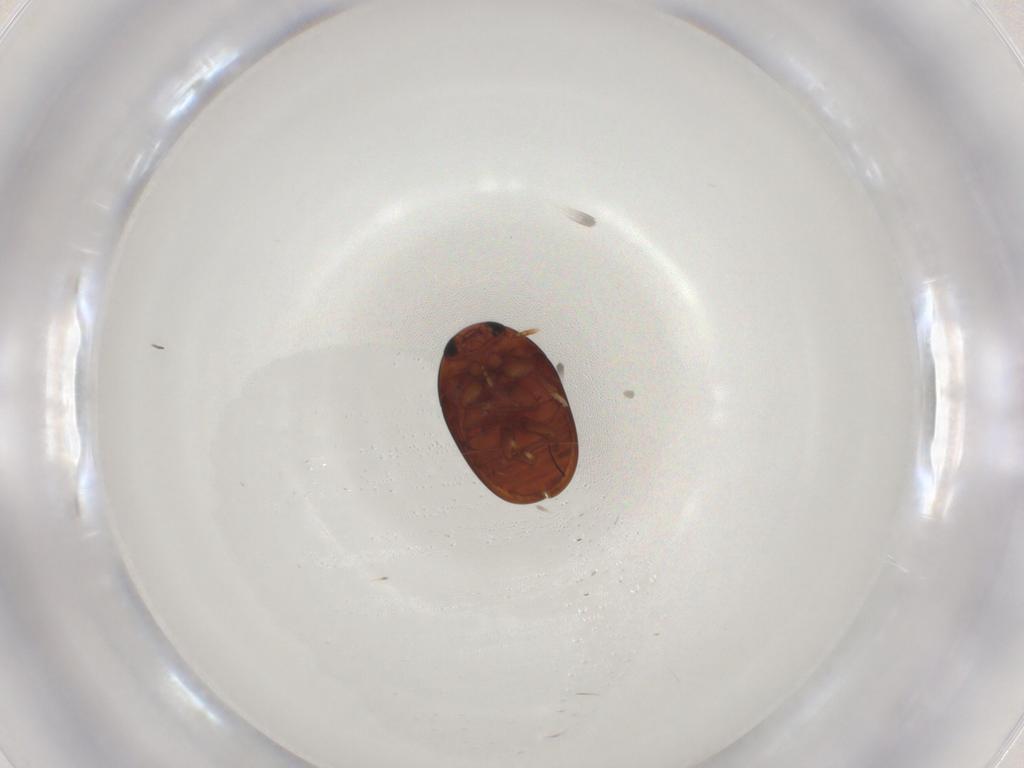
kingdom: Animalia
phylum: Arthropoda
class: Insecta
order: Coleoptera
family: Phalacridae
